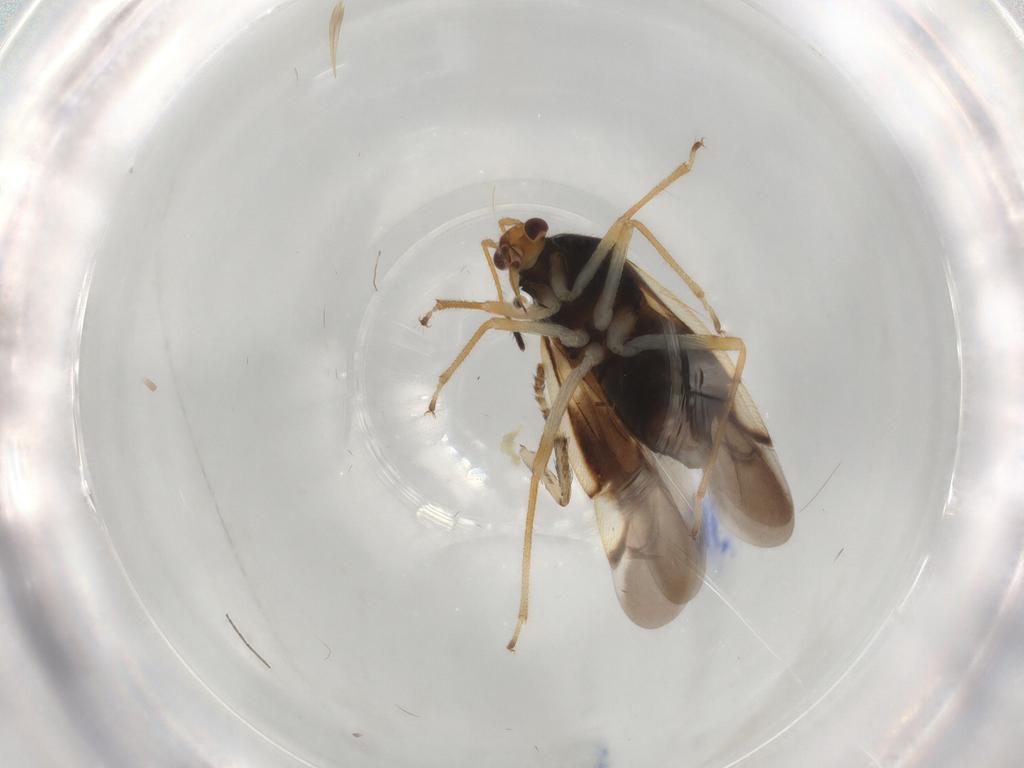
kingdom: Animalia
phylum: Arthropoda
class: Insecta
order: Hemiptera
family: Miridae
